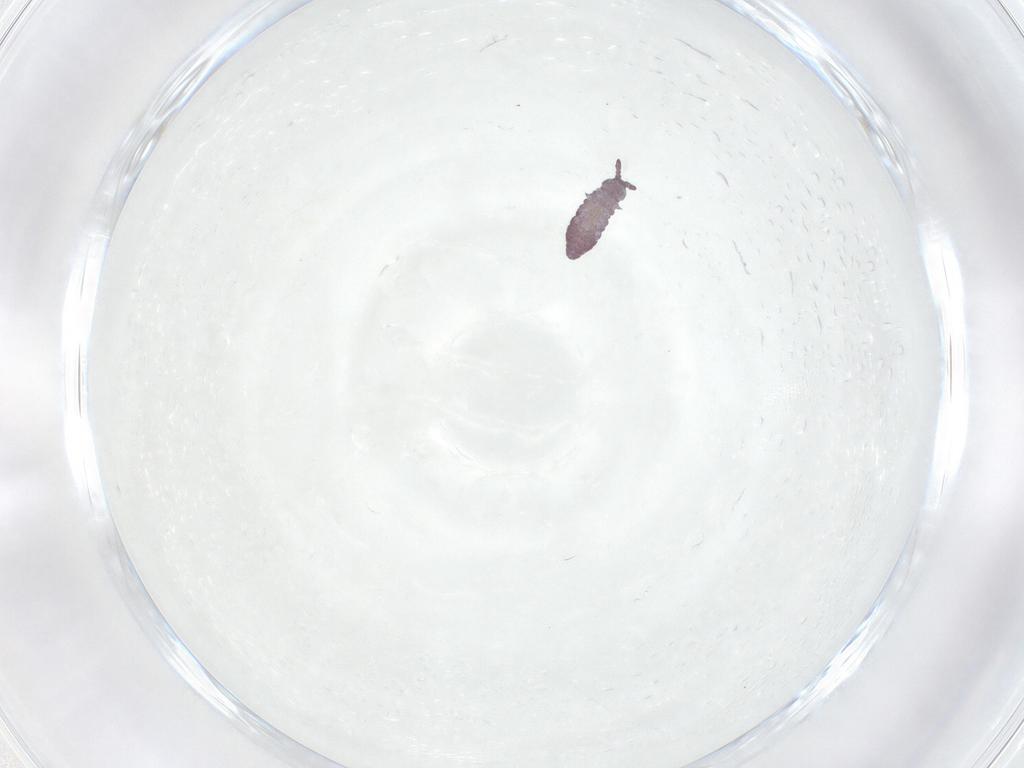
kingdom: Animalia
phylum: Arthropoda
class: Collembola
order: Poduromorpha
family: Hypogastruridae
